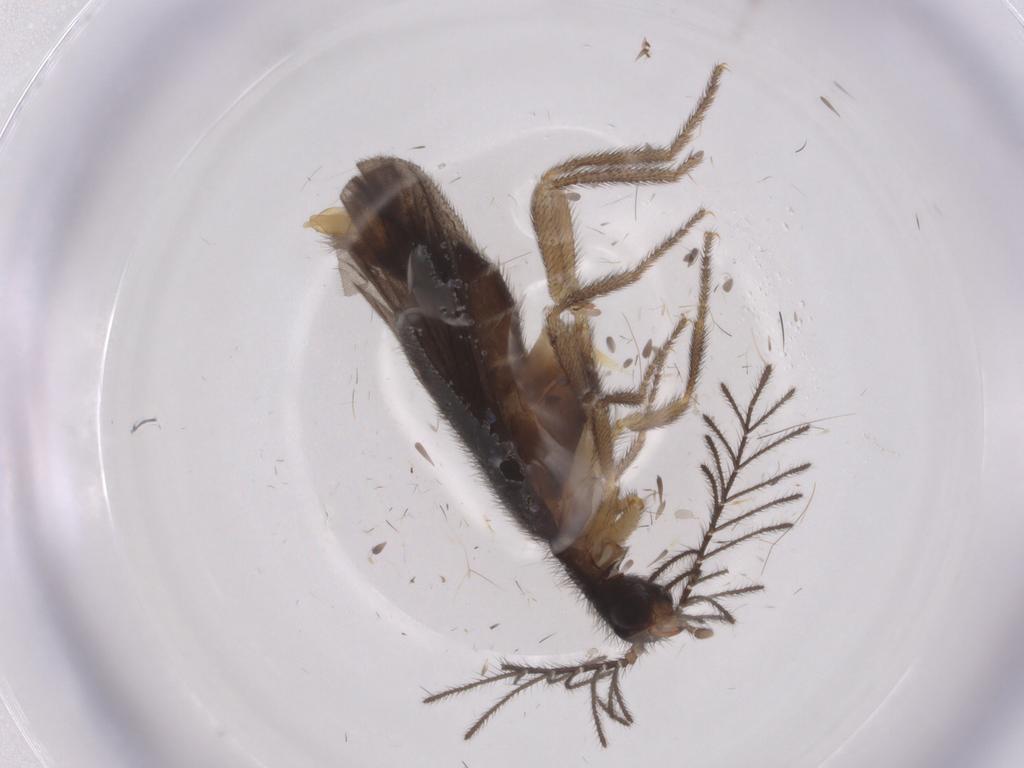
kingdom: Animalia
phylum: Arthropoda
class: Insecta
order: Coleoptera
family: Staphylinidae
